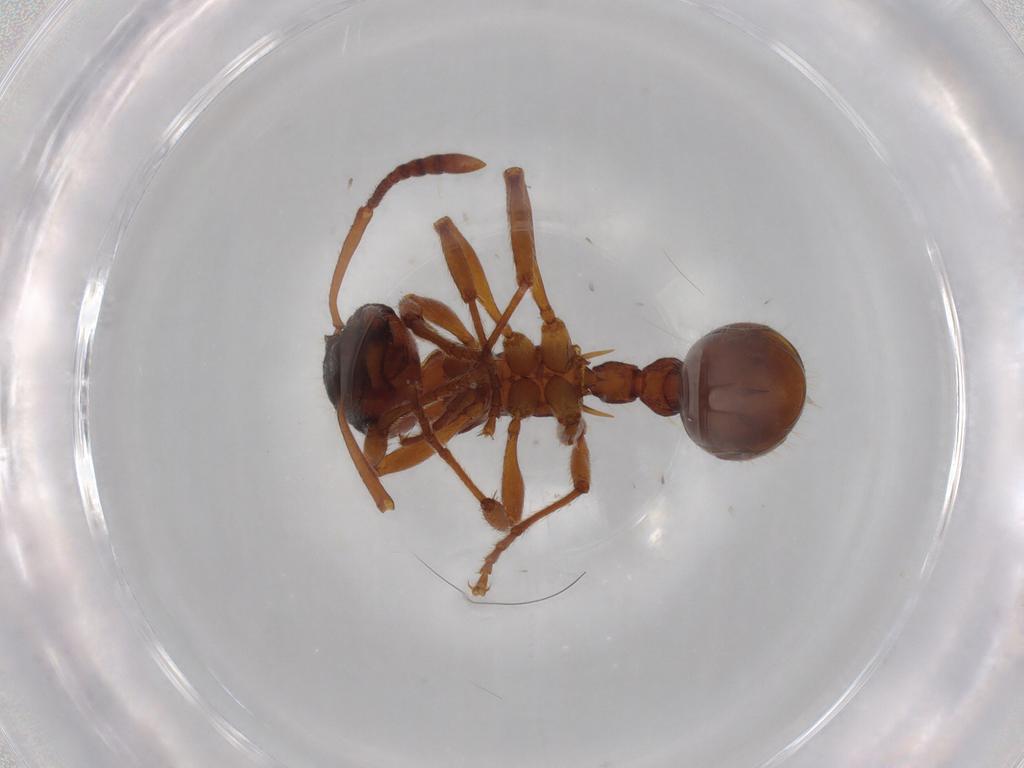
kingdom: Animalia
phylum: Arthropoda
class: Insecta
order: Hymenoptera
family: Formicidae
